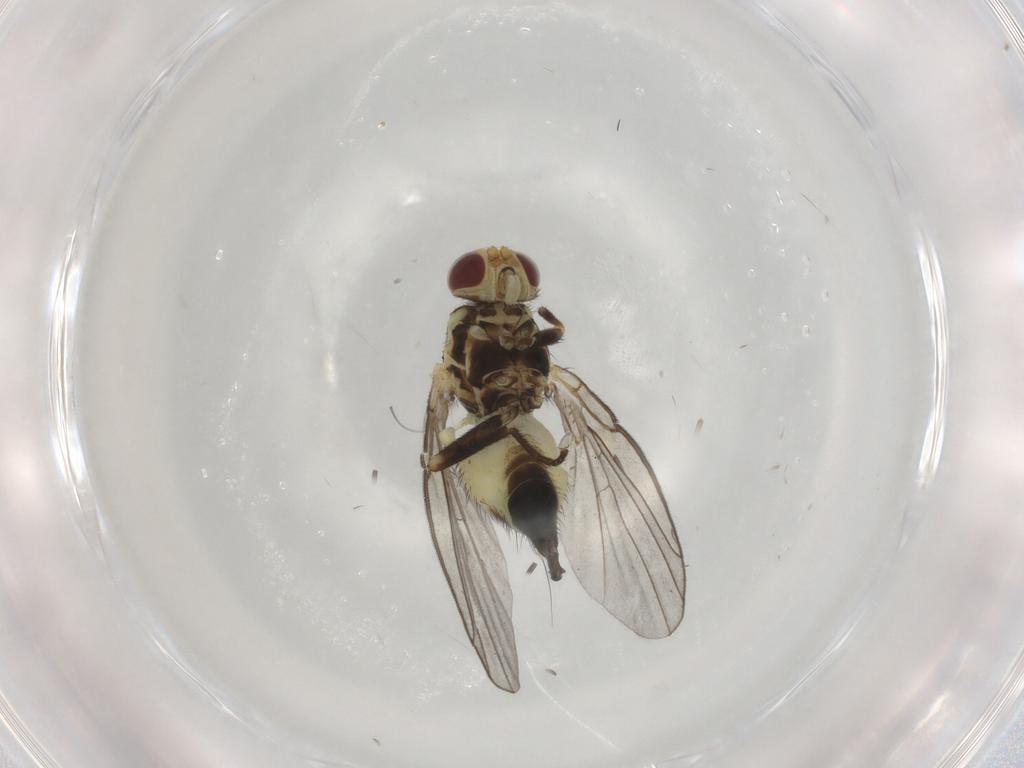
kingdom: Animalia
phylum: Arthropoda
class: Insecta
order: Diptera
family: Agromyzidae
